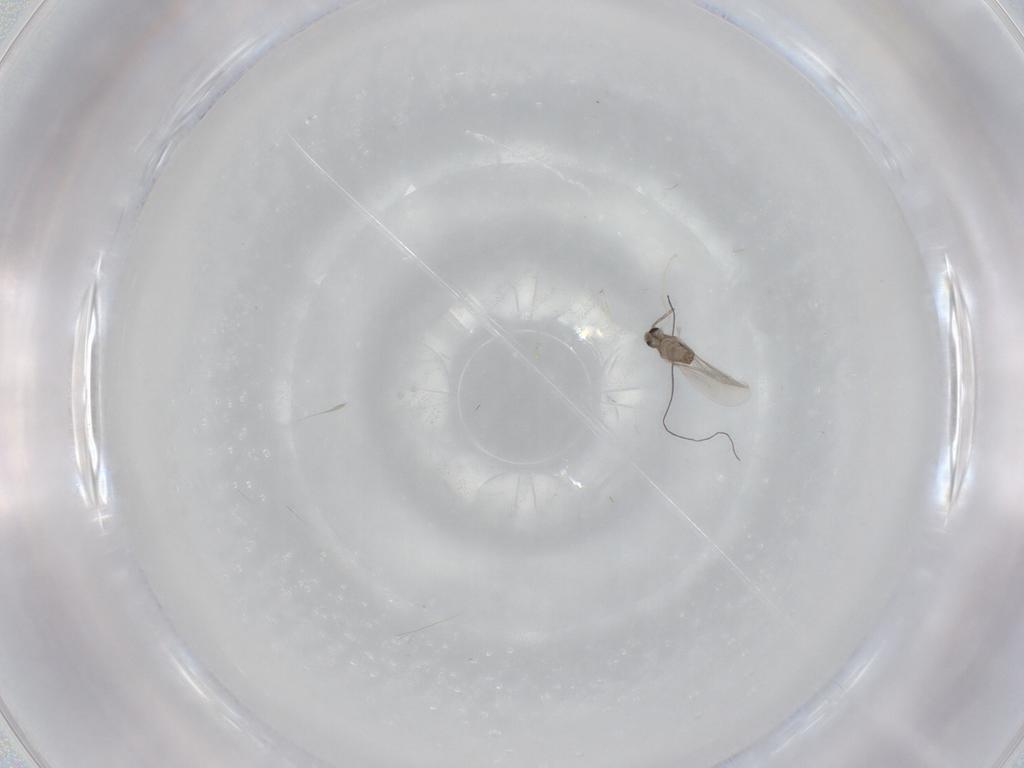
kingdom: Animalia
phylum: Arthropoda
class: Insecta
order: Diptera
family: Cecidomyiidae
